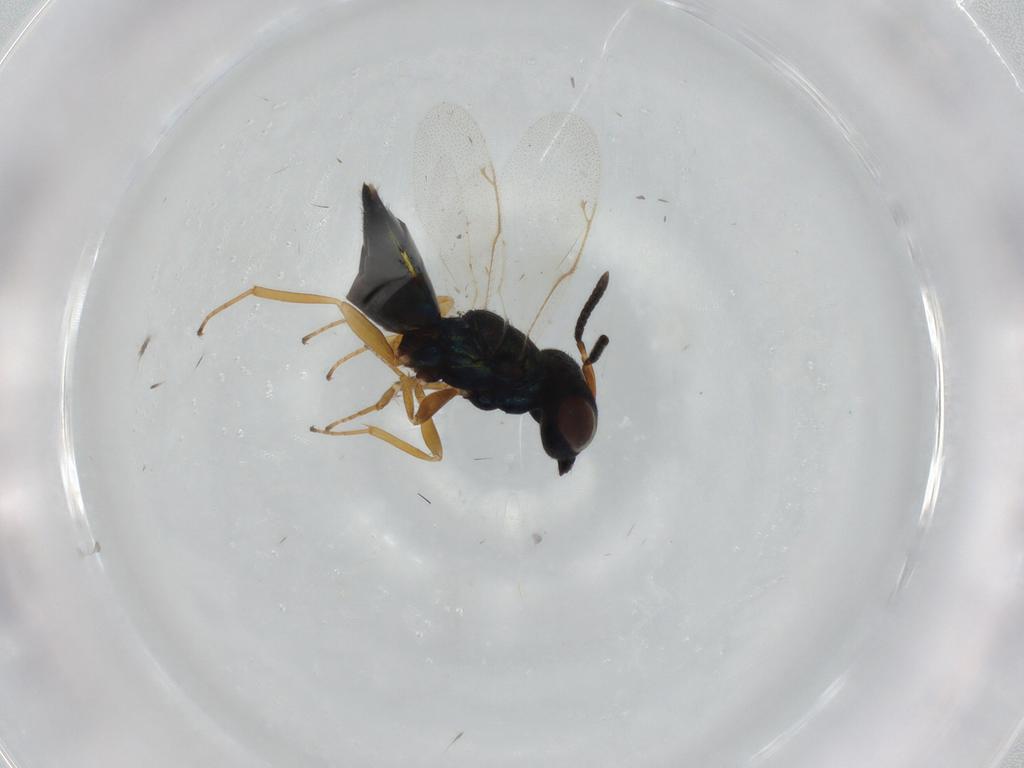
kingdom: Animalia
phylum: Arthropoda
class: Insecta
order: Hymenoptera
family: Pteromalidae
